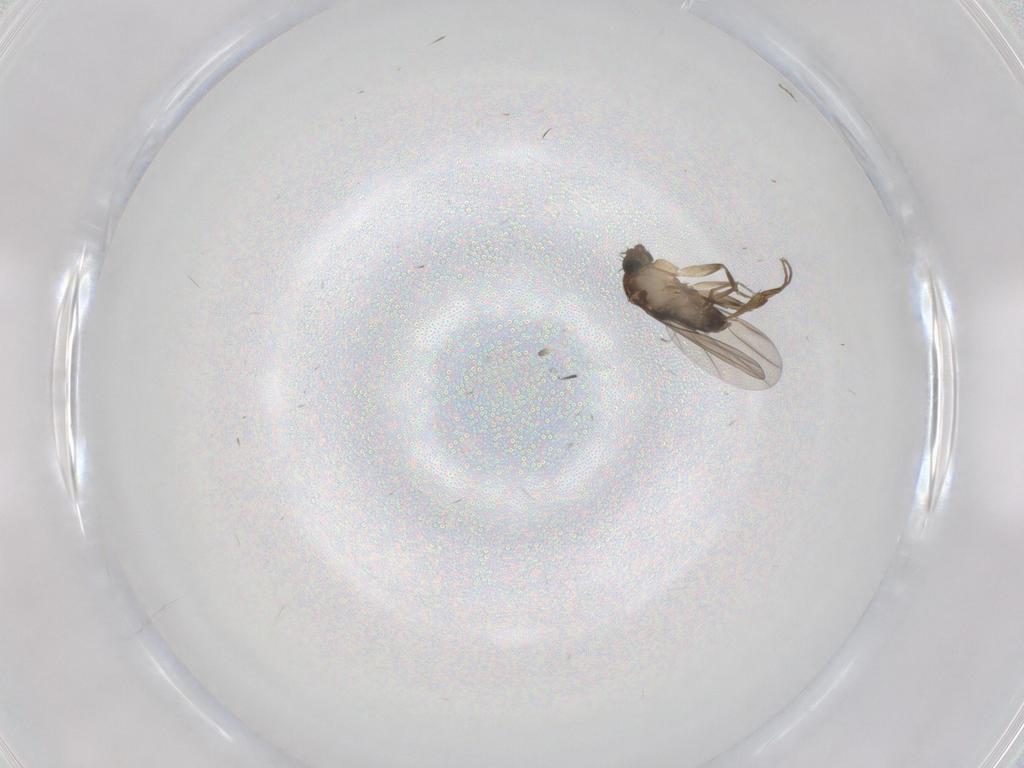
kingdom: Animalia
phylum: Arthropoda
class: Insecta
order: Diptera
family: Phoridae
